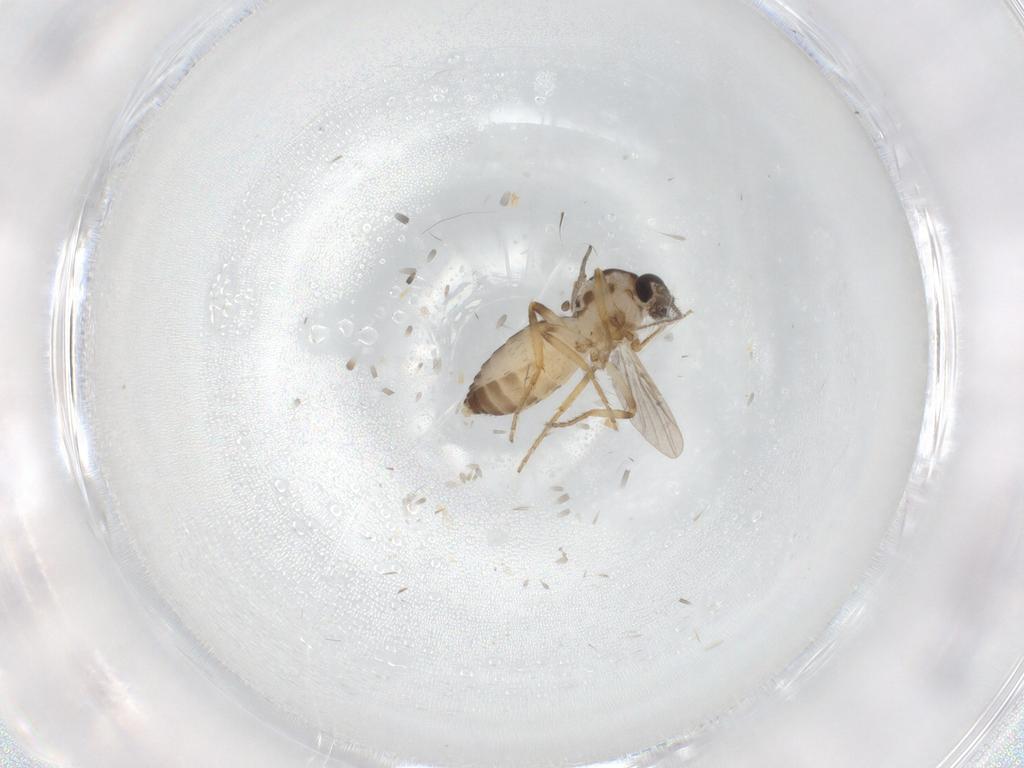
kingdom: Animalia
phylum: Arthropoda
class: Insecta
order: Diptera
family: Ceratopogonidae
